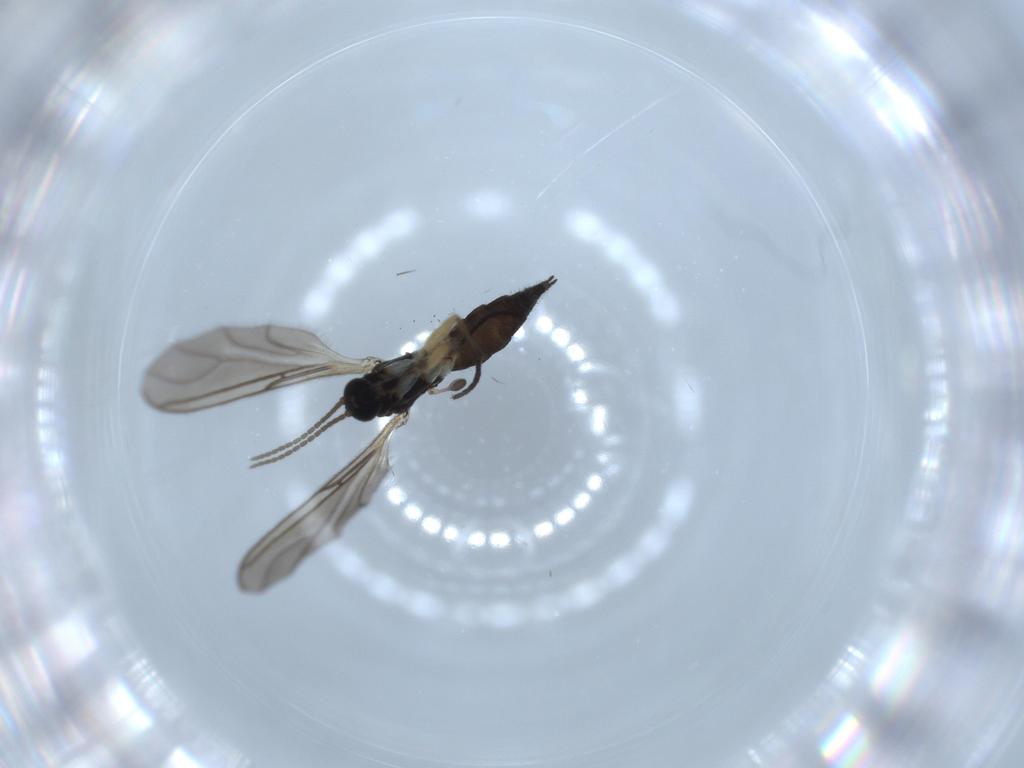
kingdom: Animalia
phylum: Arthropoda
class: Insecta
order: Diptera
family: Sciaridae
